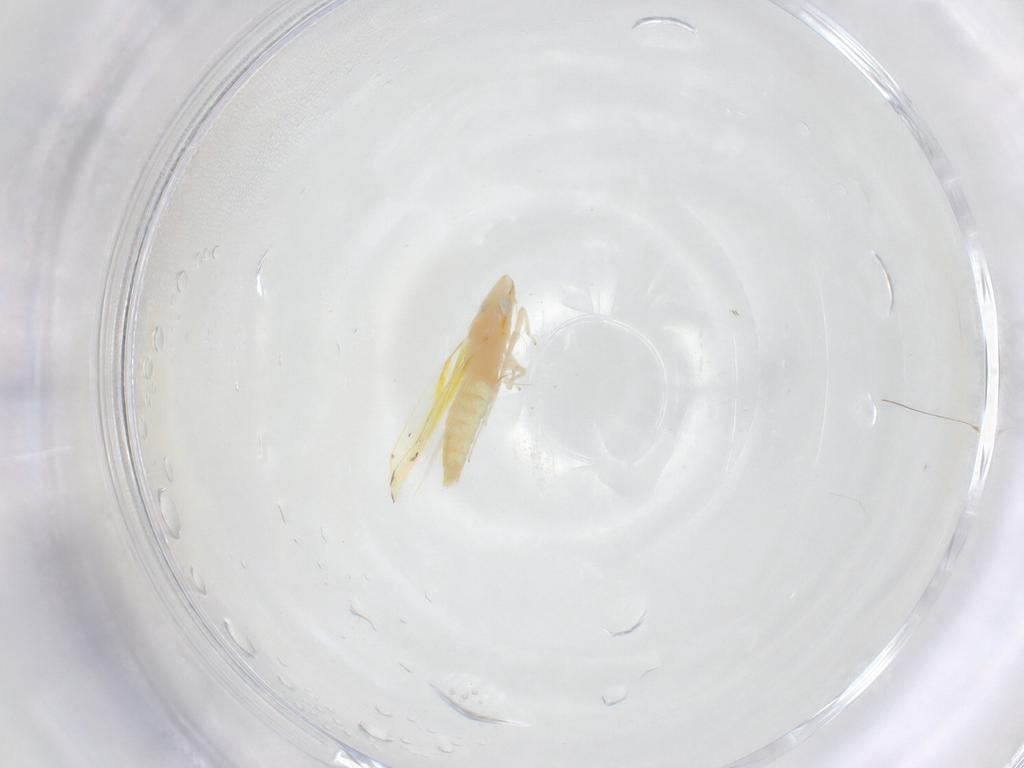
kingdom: Animalia
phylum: Arthropoda
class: Insecta
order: Hemiptera
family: Cicadellidae
